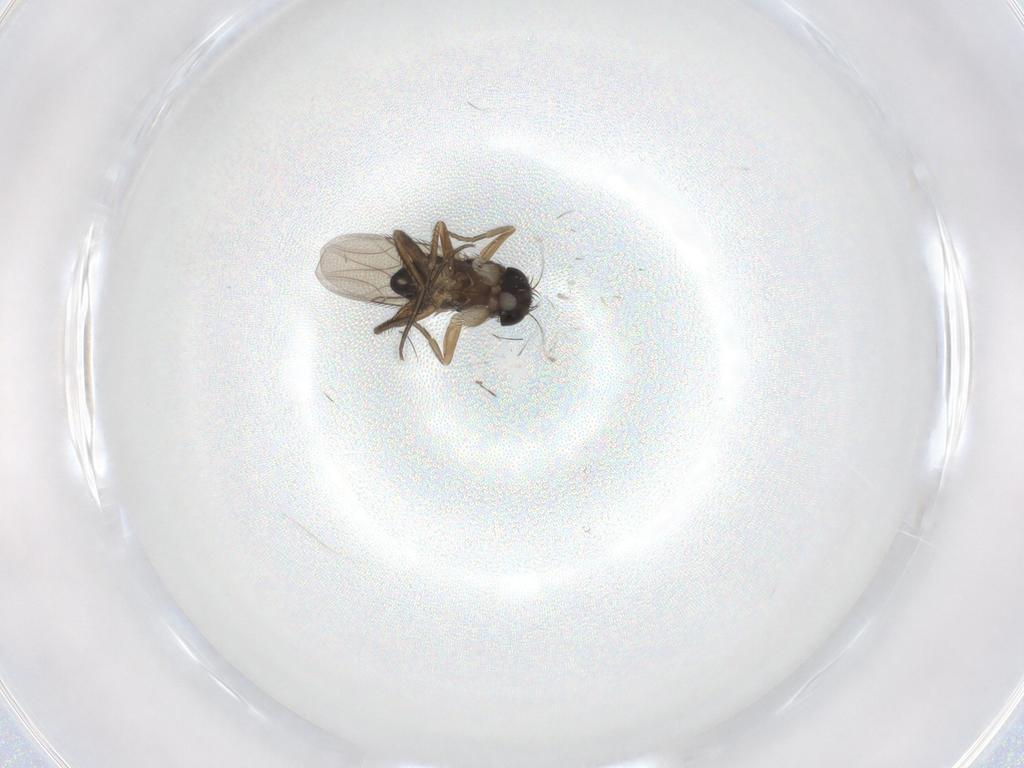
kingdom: Animalia
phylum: Arthropoda
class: Insecta
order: Diptera
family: Phoridae
